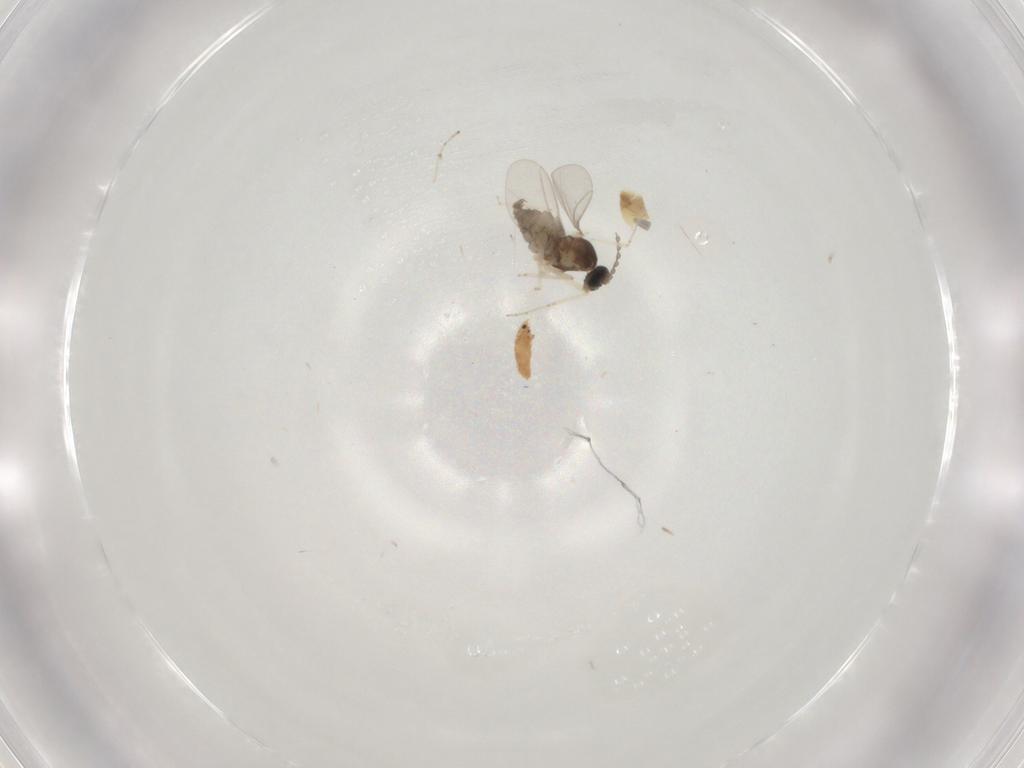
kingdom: Animalia
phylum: Arthropoda
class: Insecta
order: Diptera
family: Cecidomyiidae
